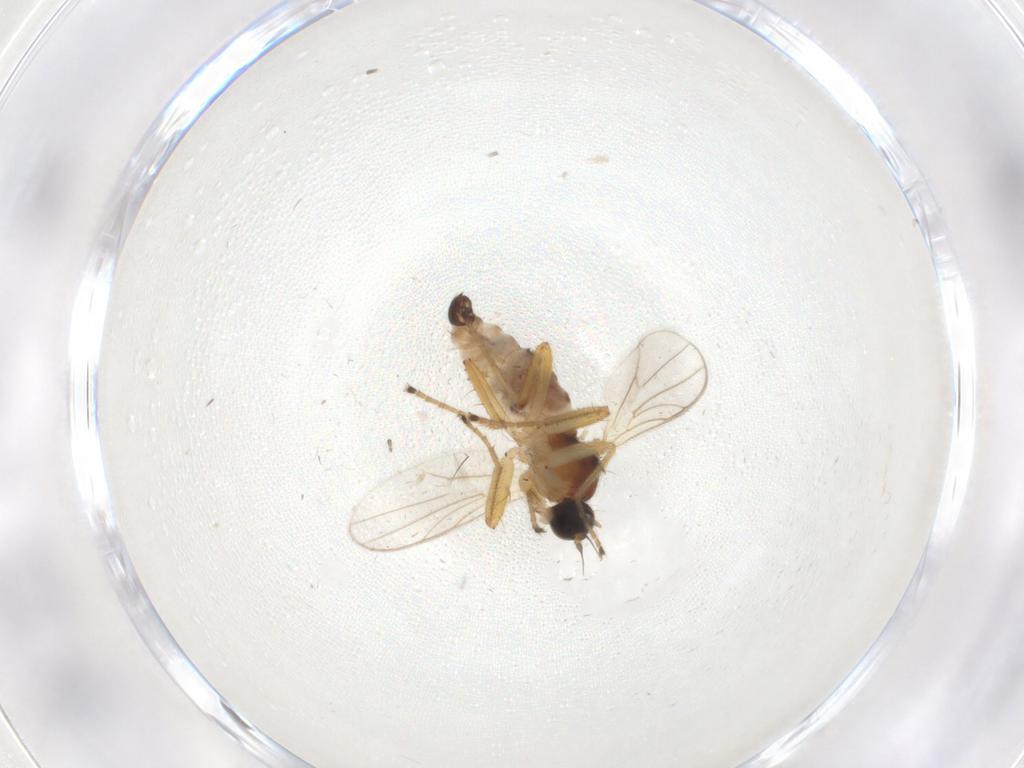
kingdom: Animalia
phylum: Arthropoda
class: Insecta
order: Diptera
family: Hybotidae
